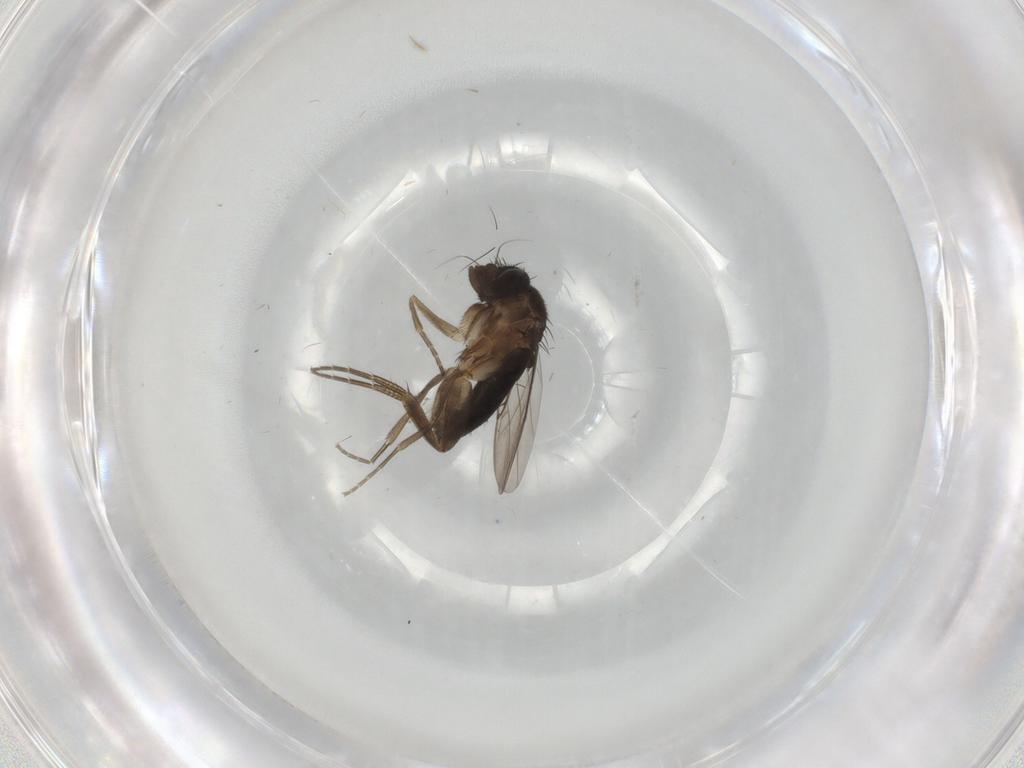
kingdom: Animalia
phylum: Arthropoda
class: Insecta
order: Diptera
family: Phoridae
